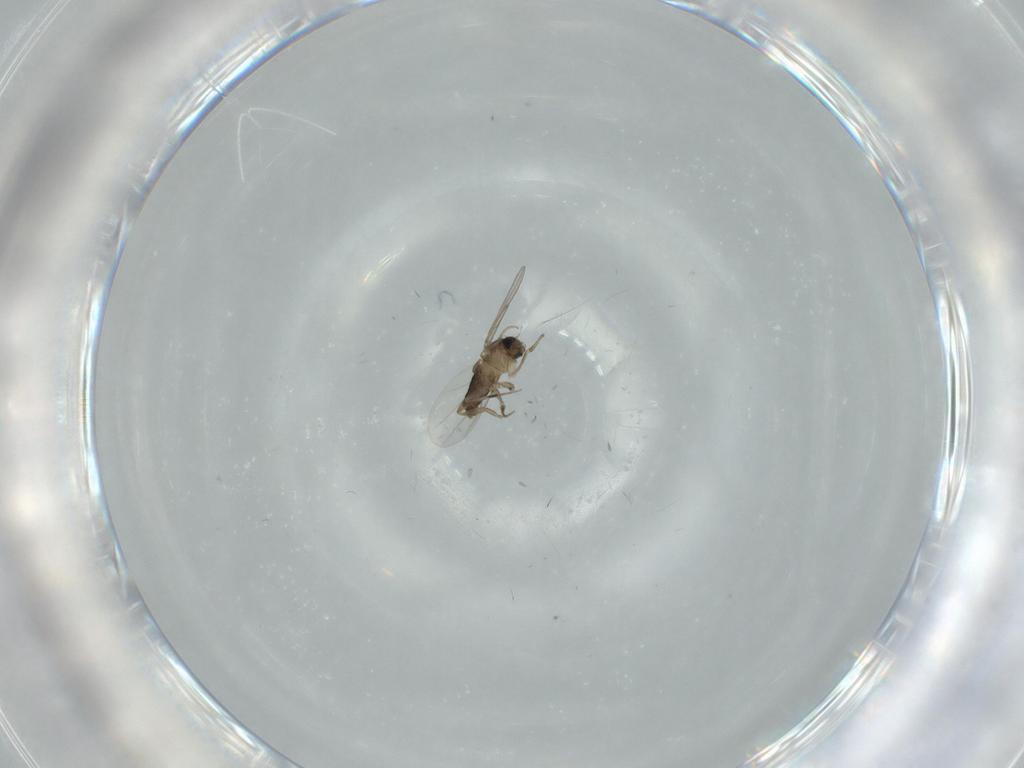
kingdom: Animalia
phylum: Arthropoda
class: Insecta
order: Diptera
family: Phoridae
